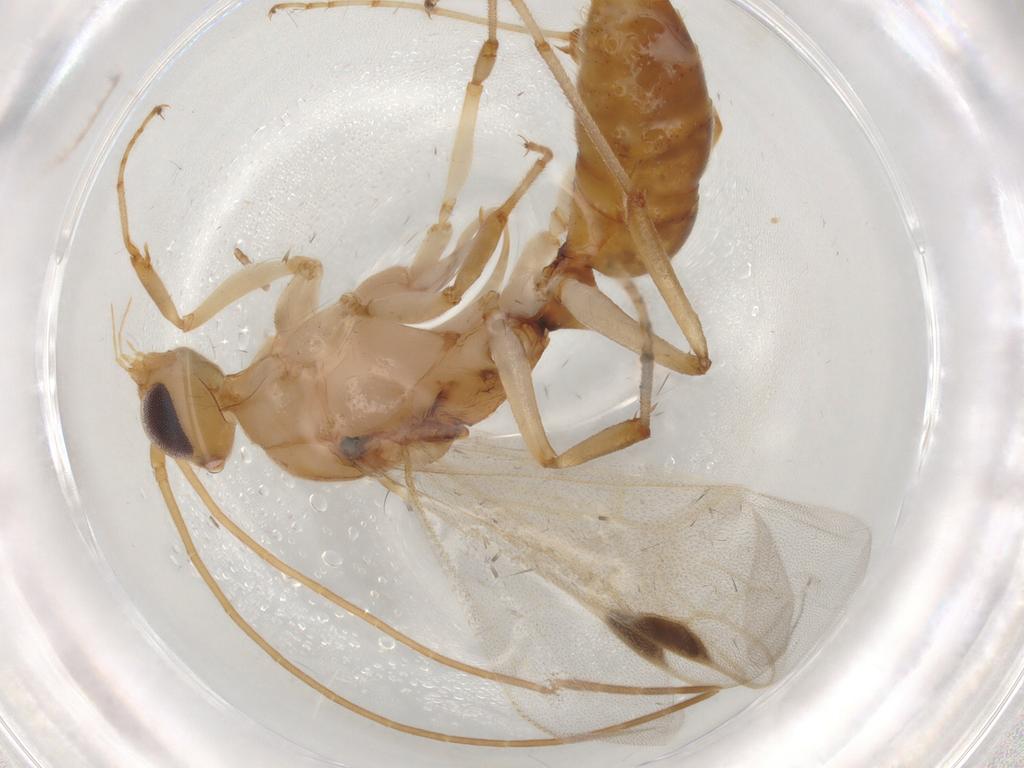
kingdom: Animalia
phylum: Arthropoda
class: Insecta
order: Hymenoptera
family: Formicidae
